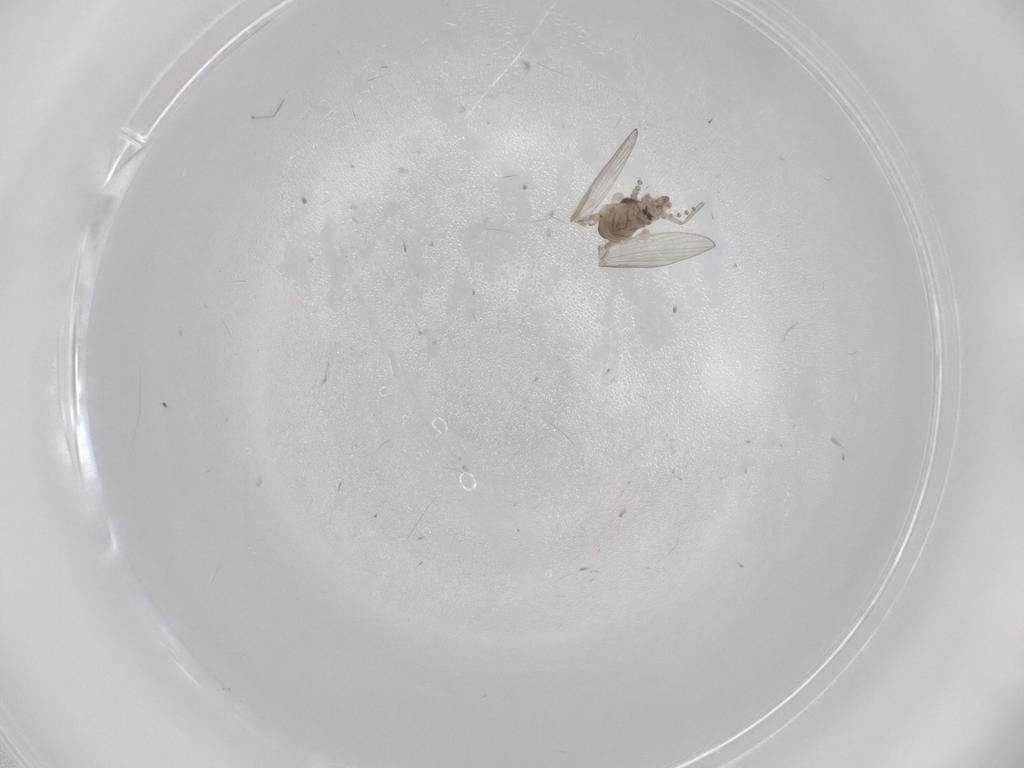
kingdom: Animalia
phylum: Arthropoda
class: Insecta
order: Diptera
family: Psychodidae
